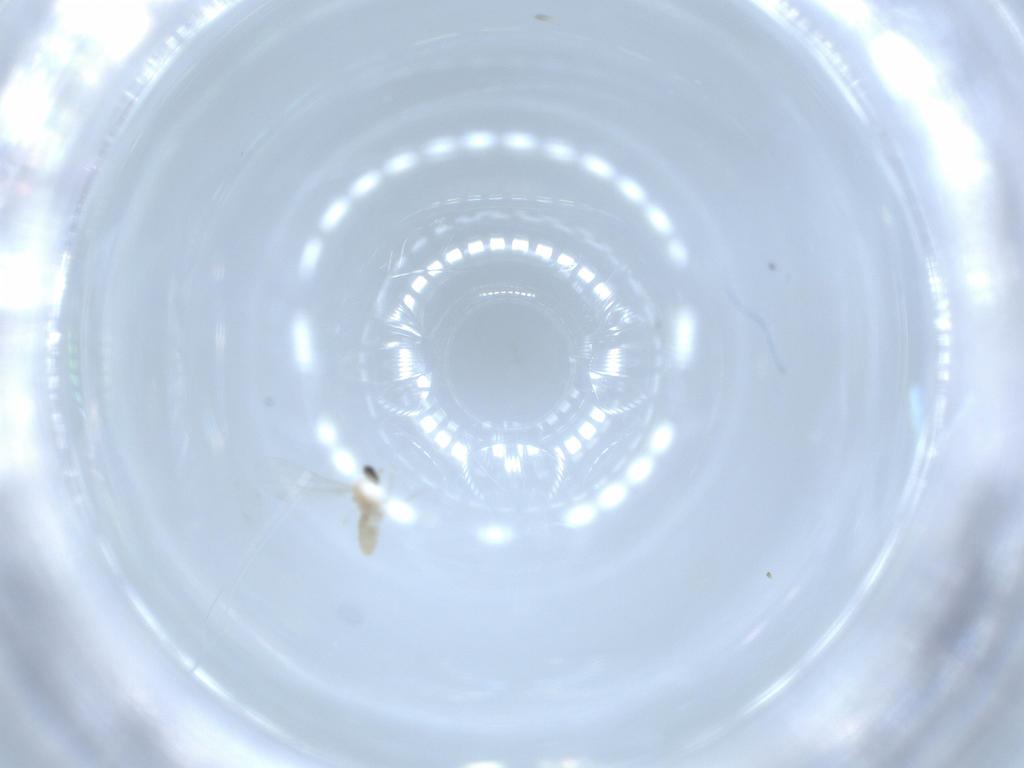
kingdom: Animalia
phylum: Arthropoda
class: Insecta
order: Diptera
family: Cecidomyiidae
